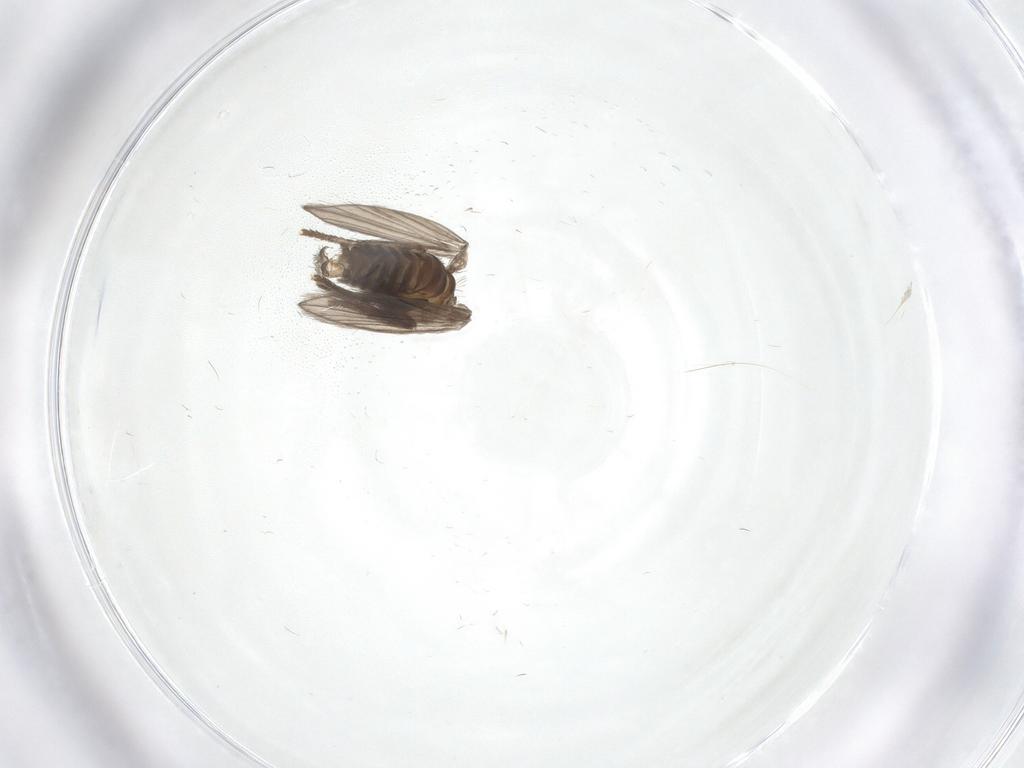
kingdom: Animalia
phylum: Arthropoda
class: Insecta
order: Diptera
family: Psychodidae
